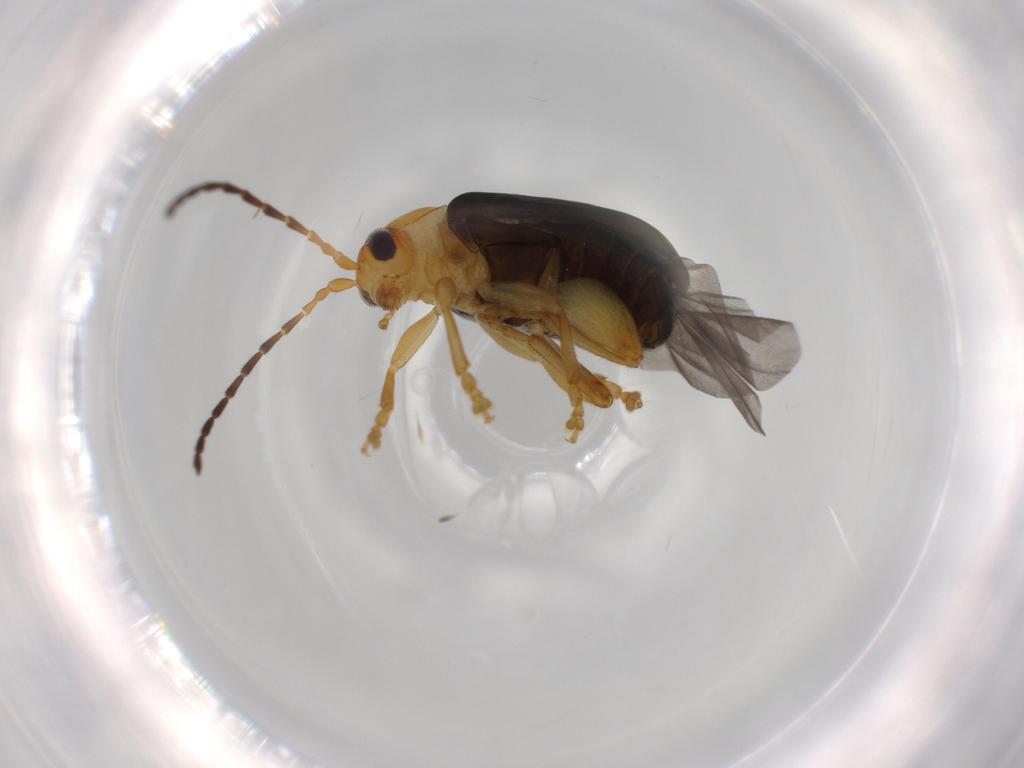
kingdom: Animalia
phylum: Arthropoda
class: Insecta
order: Coleoptera
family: Chrysomelidae
